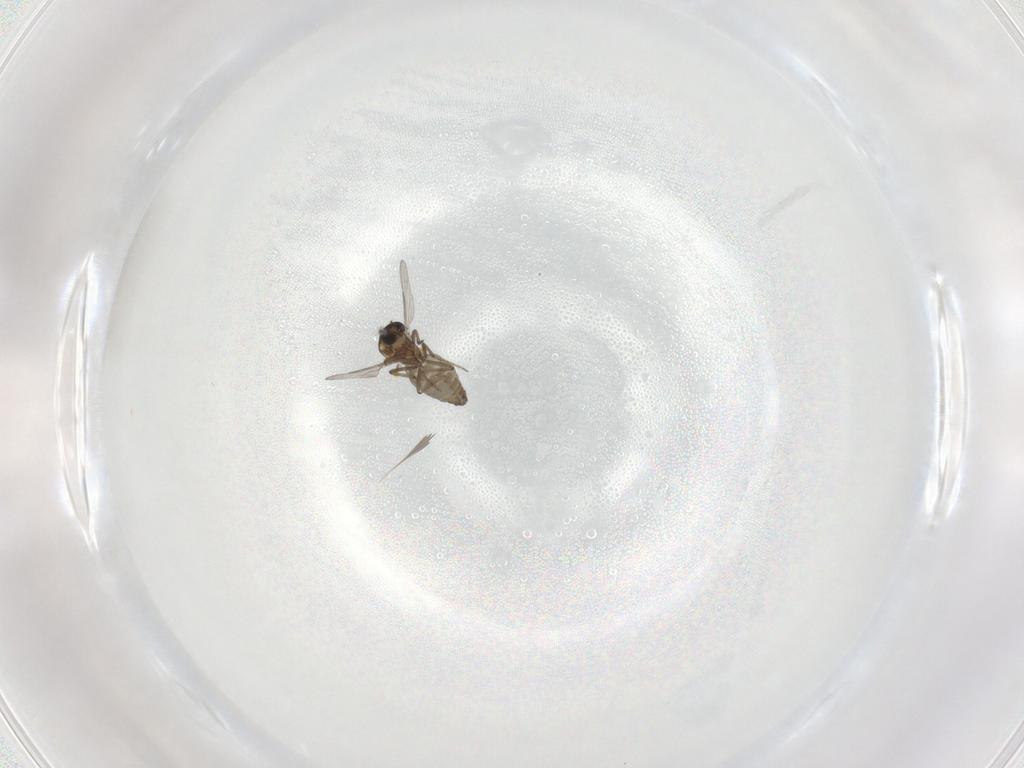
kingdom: Animalia
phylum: Arthropoda
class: Insecta
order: Diptera
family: Ceratopogonidae
